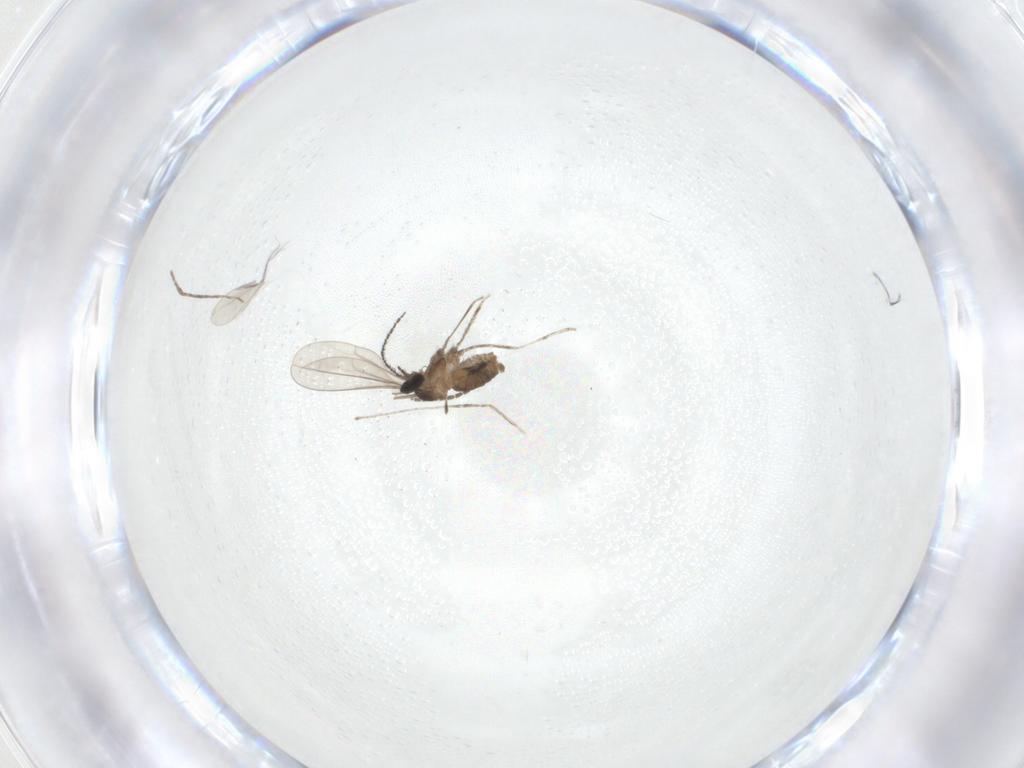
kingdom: Animalia
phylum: Arthropoda
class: Insecta
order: Diptera
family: Cecidomyiidae
